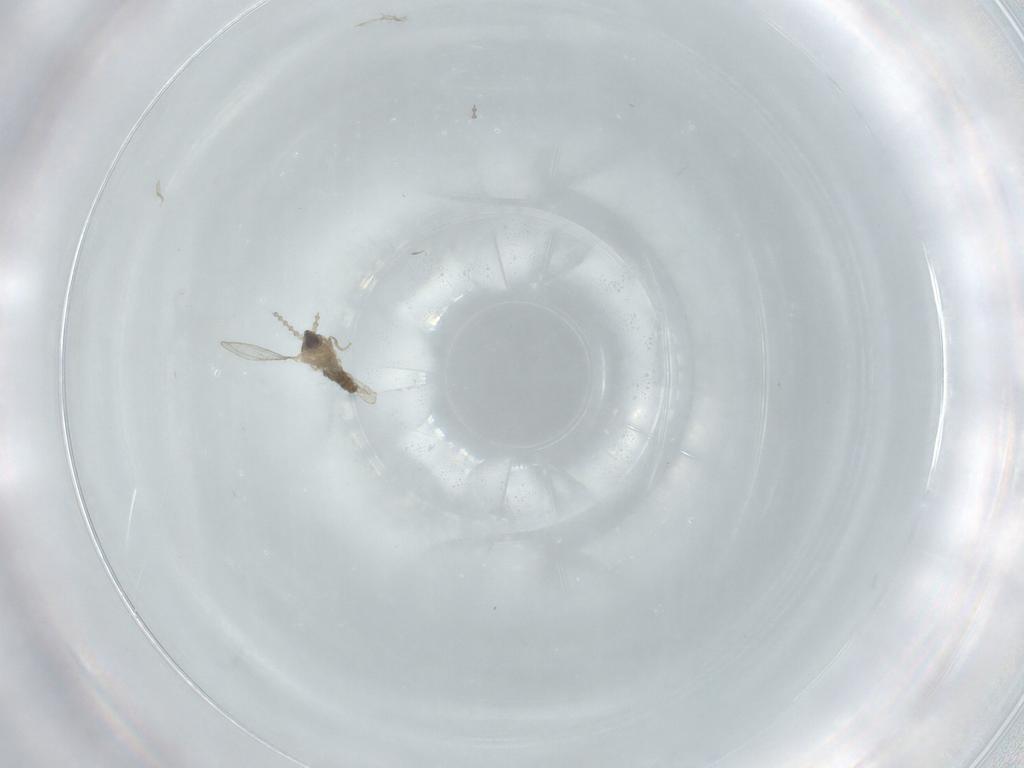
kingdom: Animalia
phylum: Arthropoda
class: Insecta
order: Diptera
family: Cecidomyiidae
